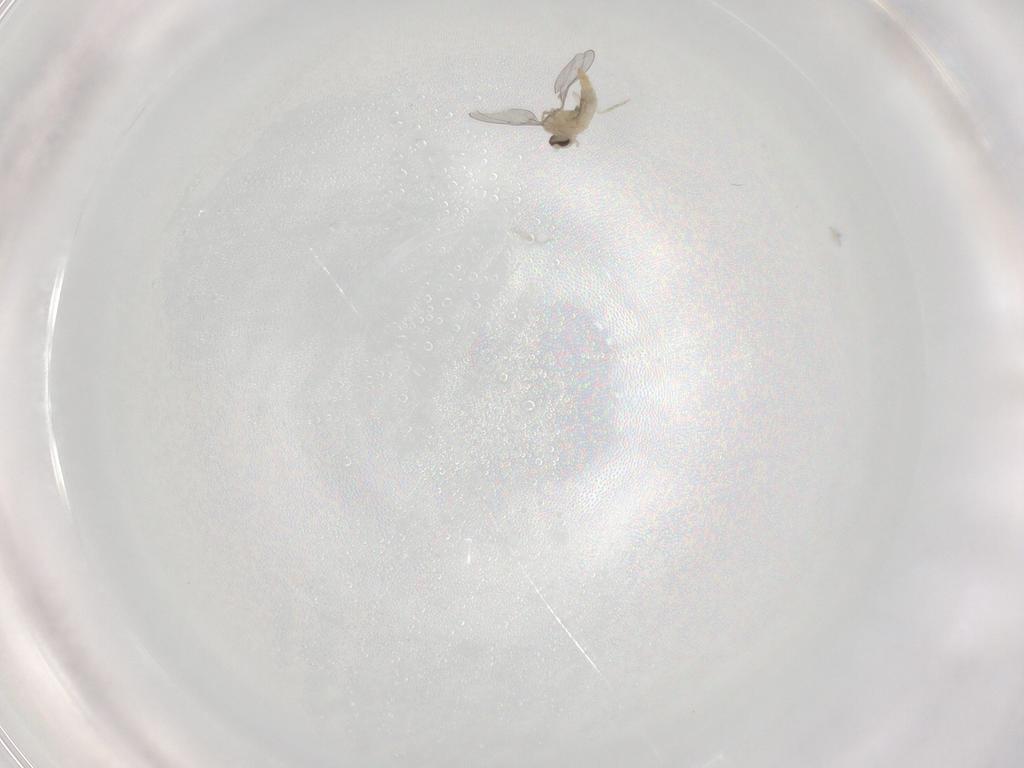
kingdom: Animalia
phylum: Arthropoda
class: Insecta
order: Diptera
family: Cecidomyiidae
